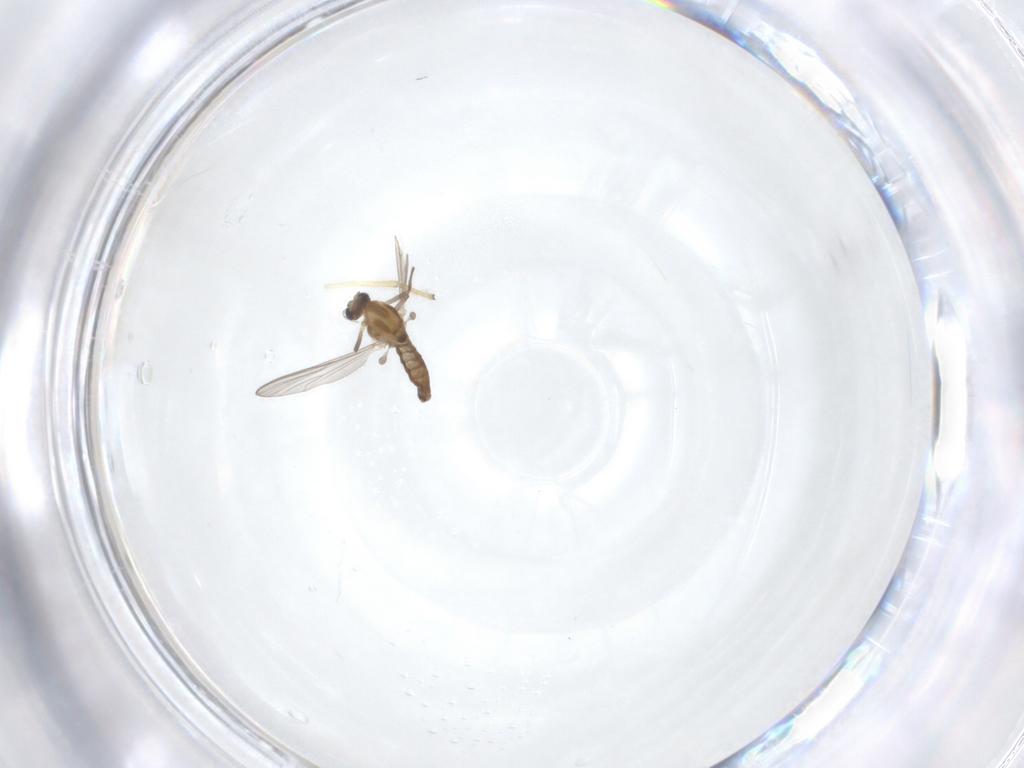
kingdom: Animalia
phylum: Arthropoda
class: Insecta
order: Diptera
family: Chironomidae
